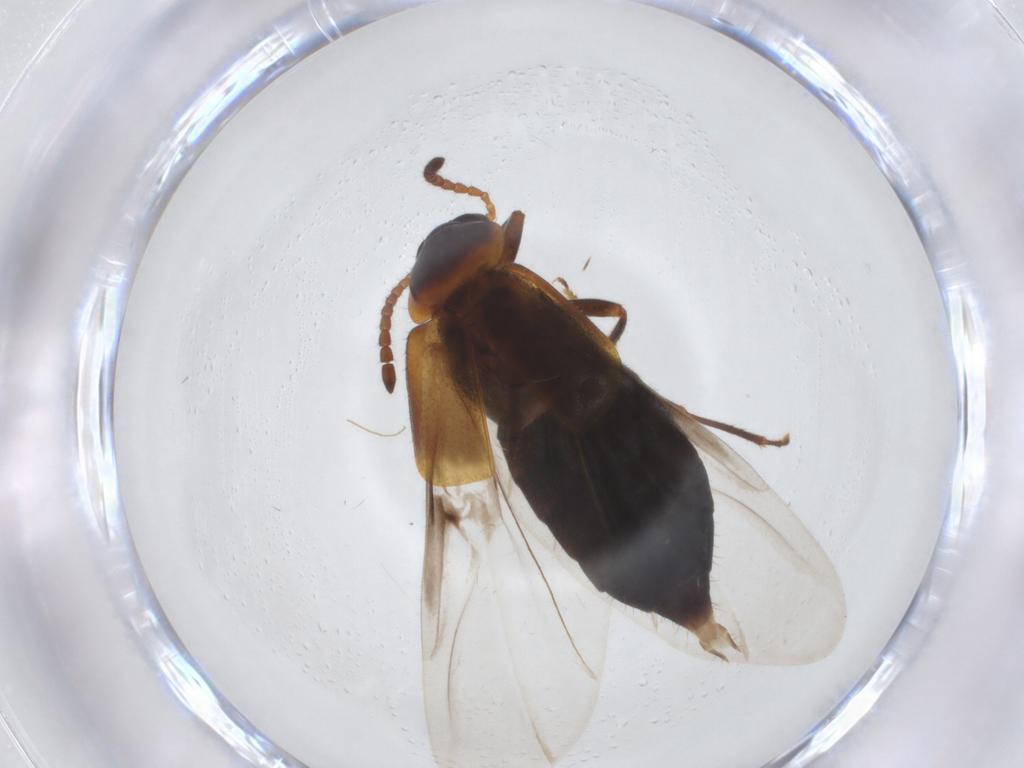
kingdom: Animalia
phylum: Arthropoda
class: Insecta
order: Coleoptera
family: Staphylinidae
